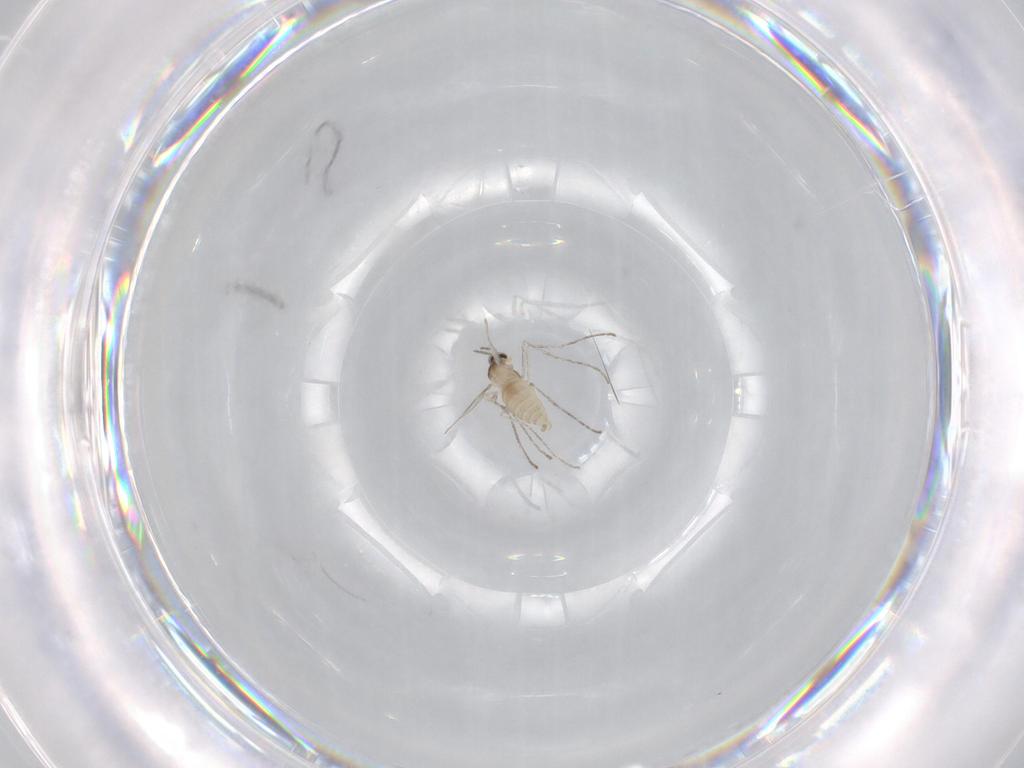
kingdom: Animalia
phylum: Arthropoda
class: Insecta
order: Diptera
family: Cecidomyiidae
